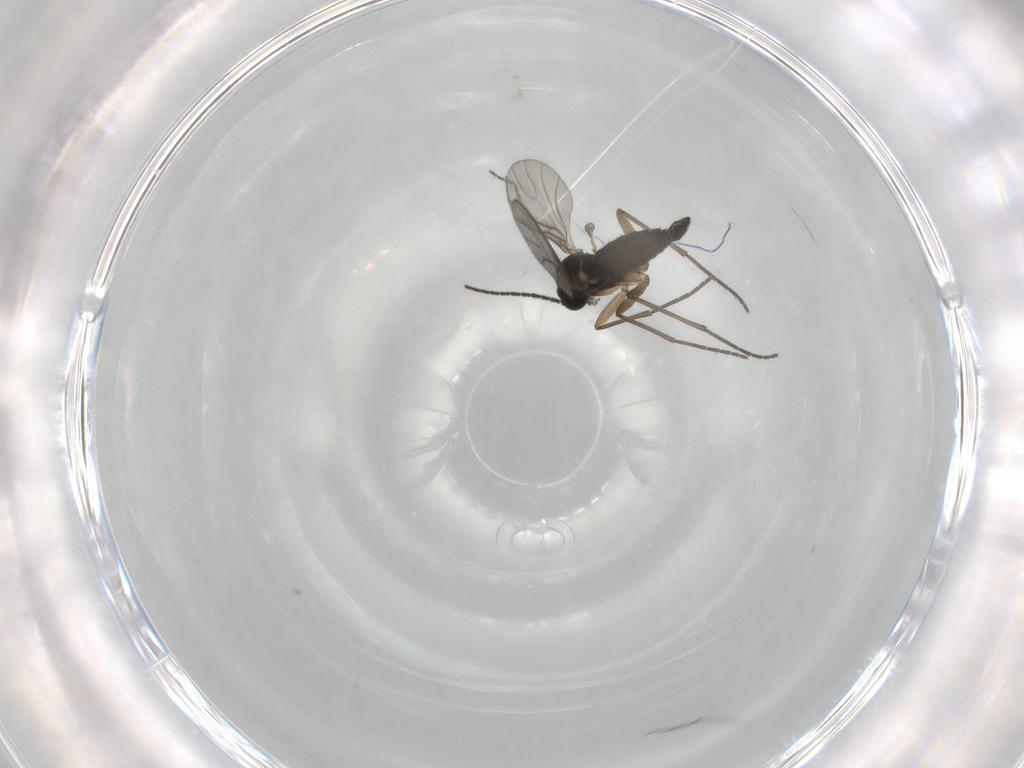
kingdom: Animalia
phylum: Arthropoda
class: Insecta
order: Diptera
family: Sciaridae
